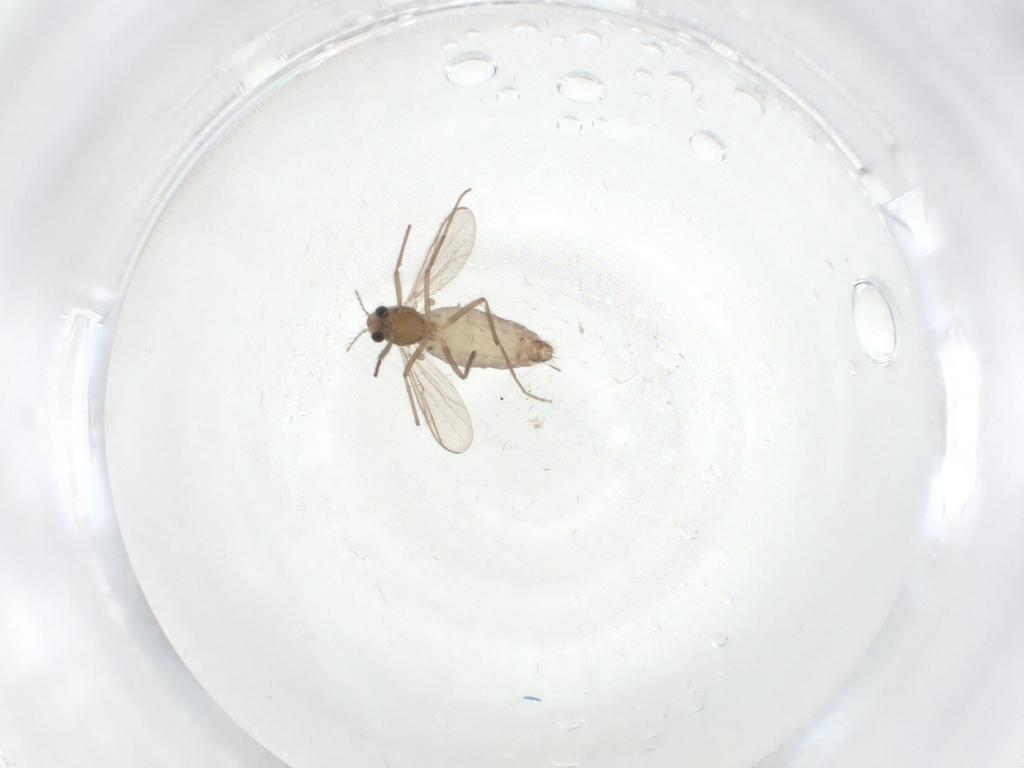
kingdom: Animalia
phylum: Arthropoda
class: Insecta
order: Diptera
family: Chironomidae
